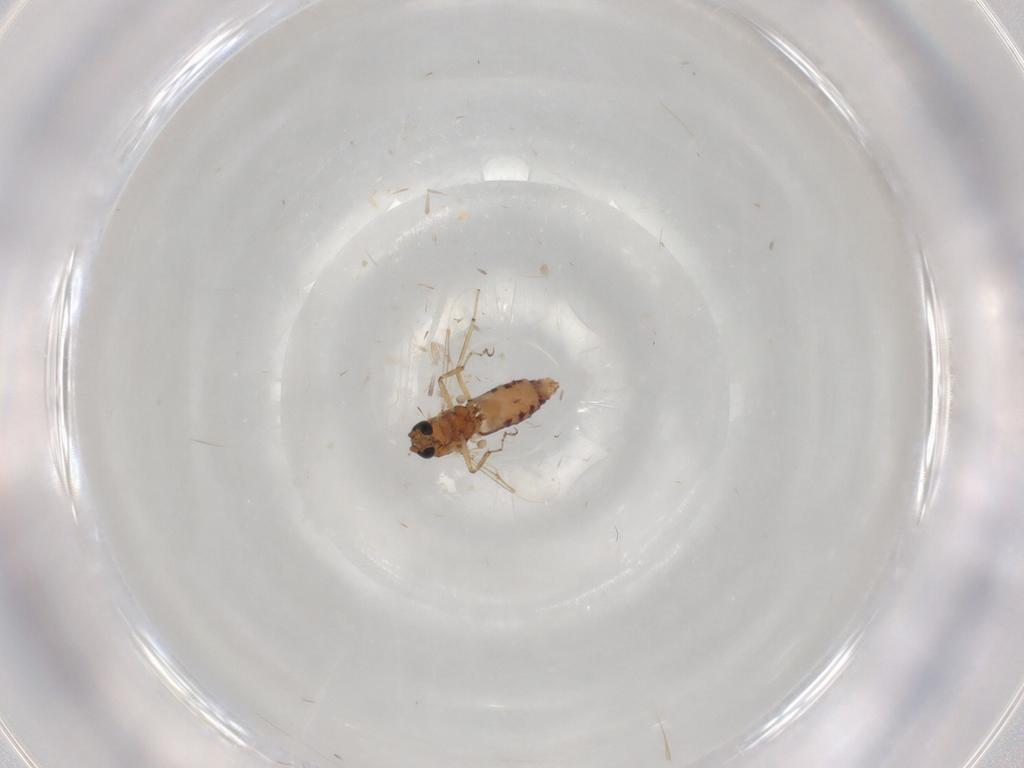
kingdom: Animalia
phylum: Arthropoda
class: Insecta
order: Diptera
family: Ceratopogonidae
